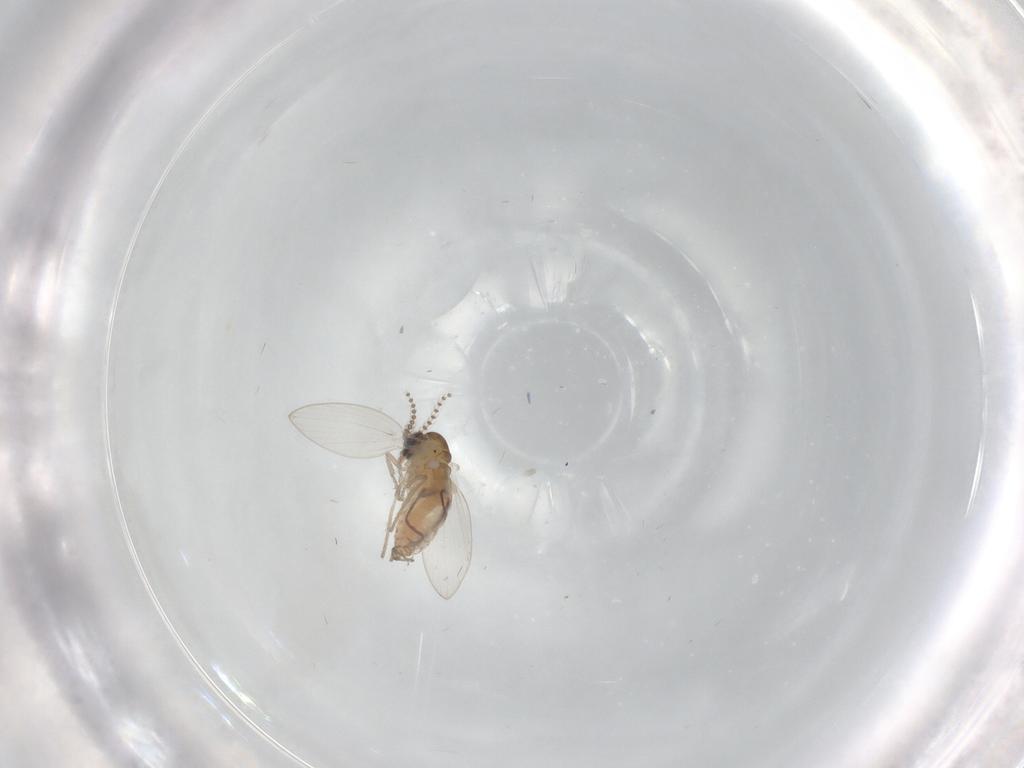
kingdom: Animalia
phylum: Arthropoda
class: Insecta
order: Diptera
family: Psychodidae
